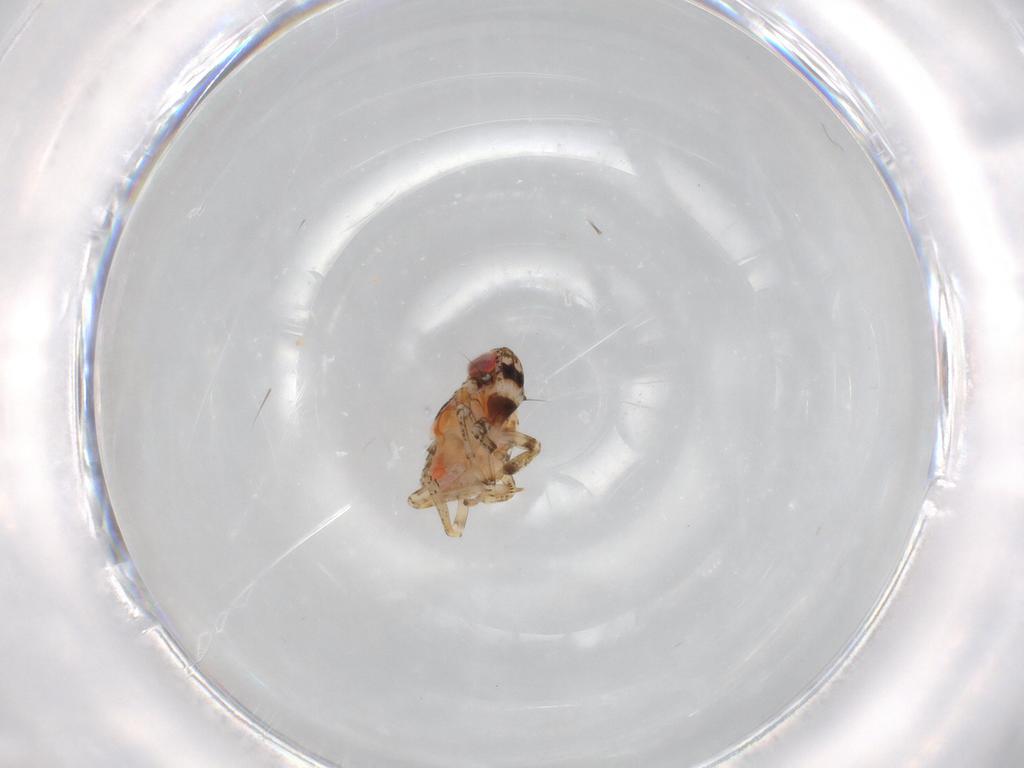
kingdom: Animalia
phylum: Arthropoda
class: Insecta
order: Hemiptera
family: Issidae
